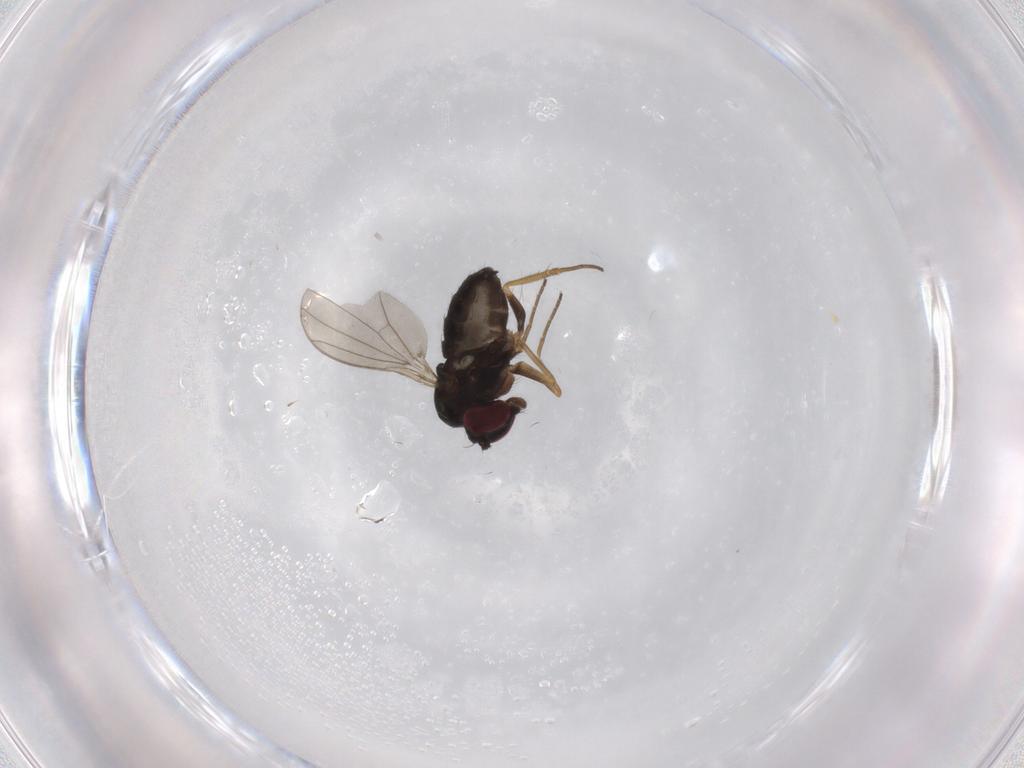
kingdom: Animalia
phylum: Arthropoda
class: Insecta
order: Diptera
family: Dolichopodidae
